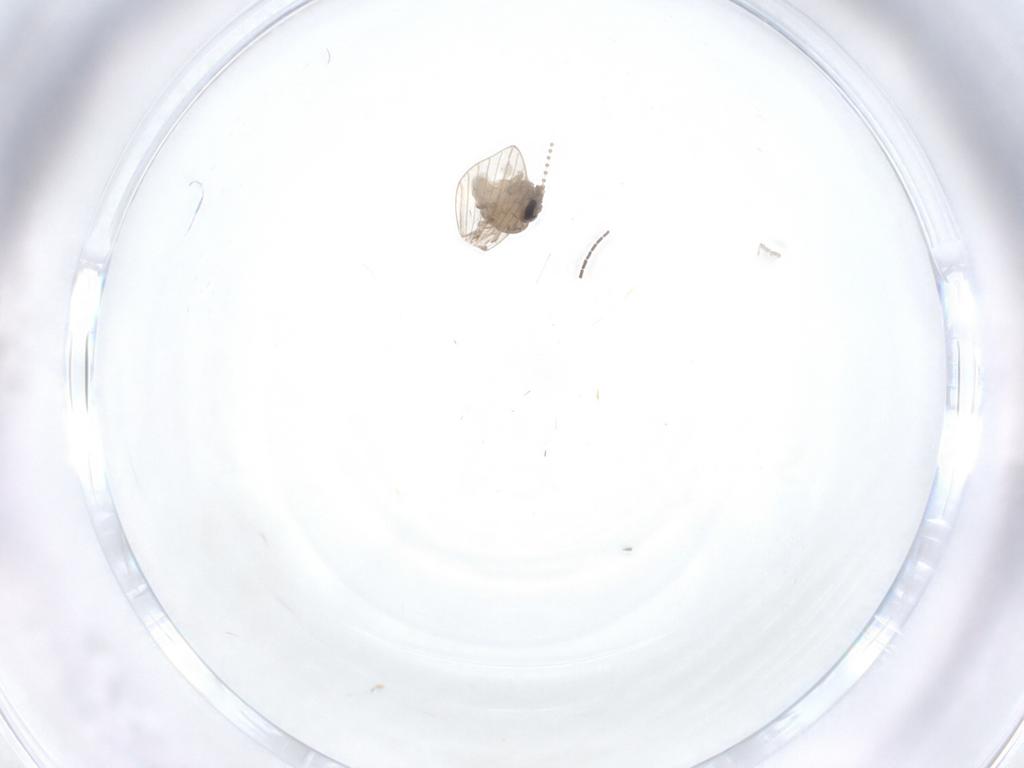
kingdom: Animalia
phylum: Arthropoda
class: Insecta
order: Diptera
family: Psychodidae
